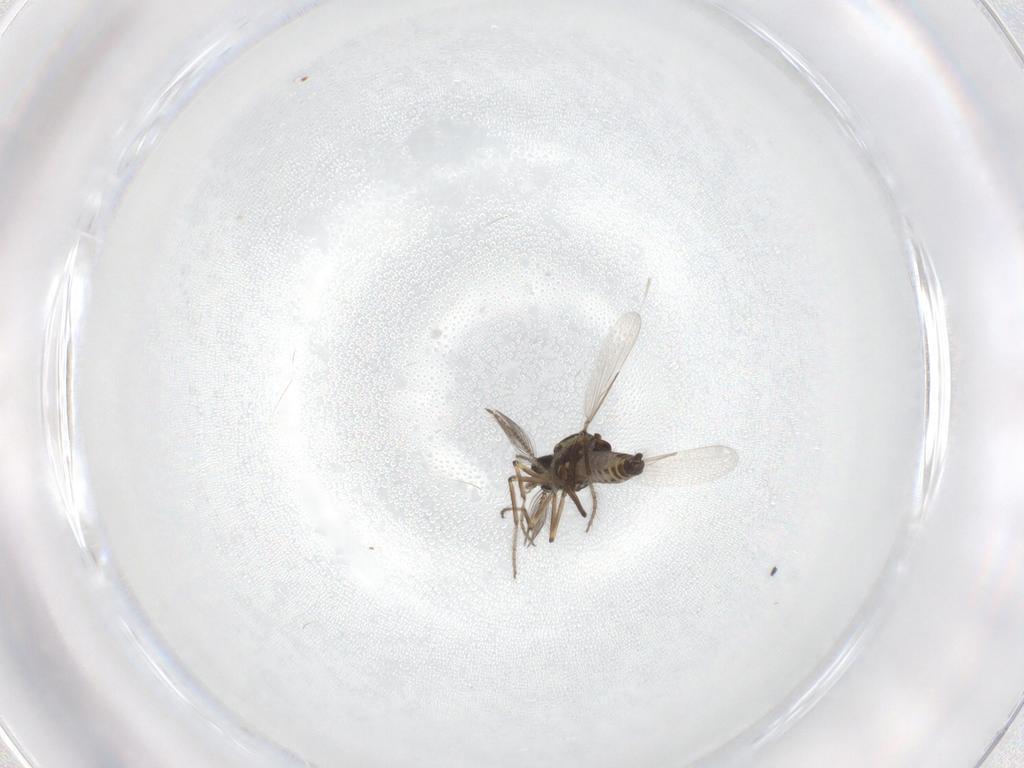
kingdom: Animalia
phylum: Arthropoda
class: Insecta
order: Diptera
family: Ceratopogonidae
